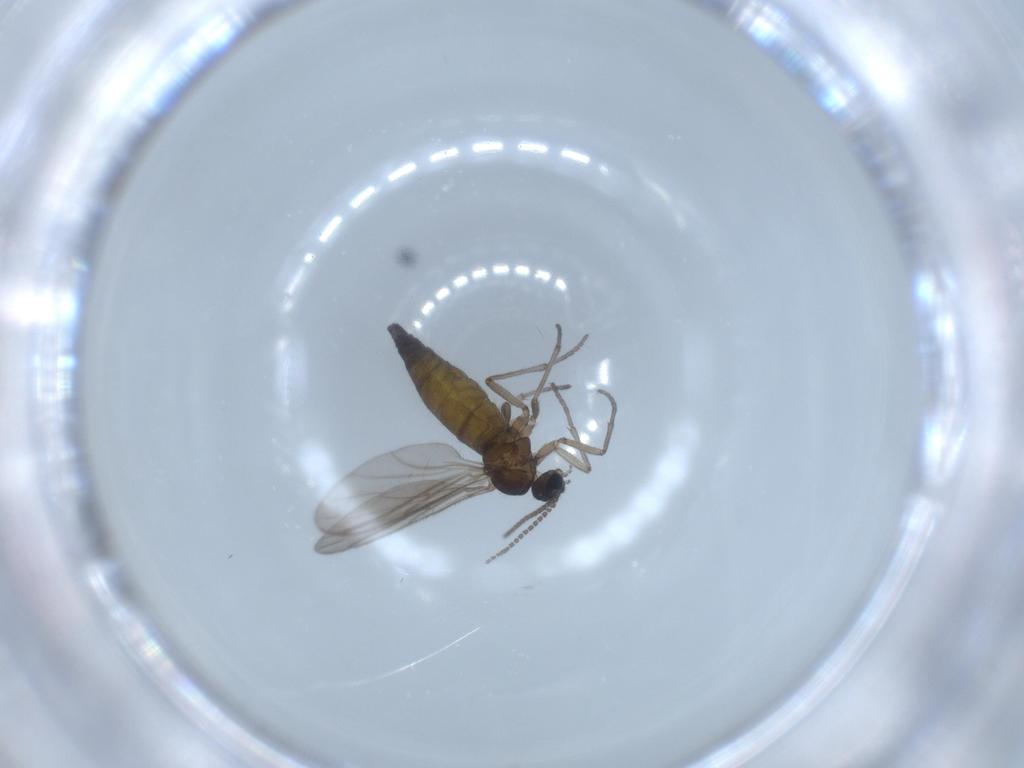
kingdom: Animalia
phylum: Arthropoda
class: Insecta
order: Diptera
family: Sciaridae
